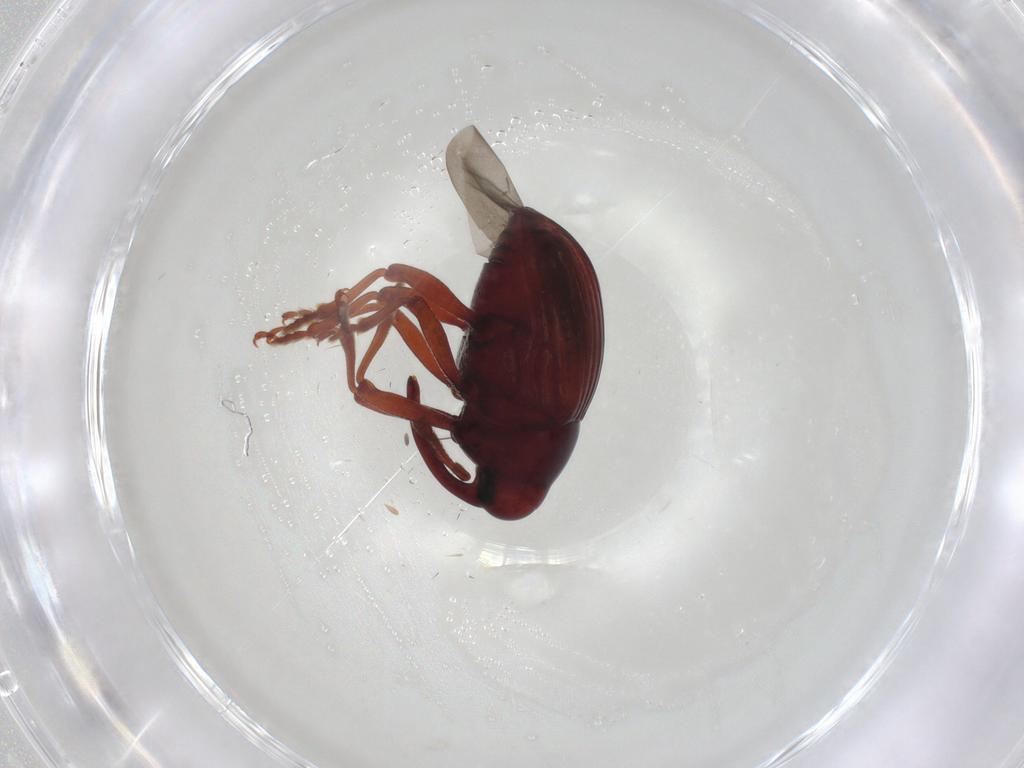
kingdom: Animalia
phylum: Arthropoda
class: Insecta
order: Coleoptera
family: Curculionidae
